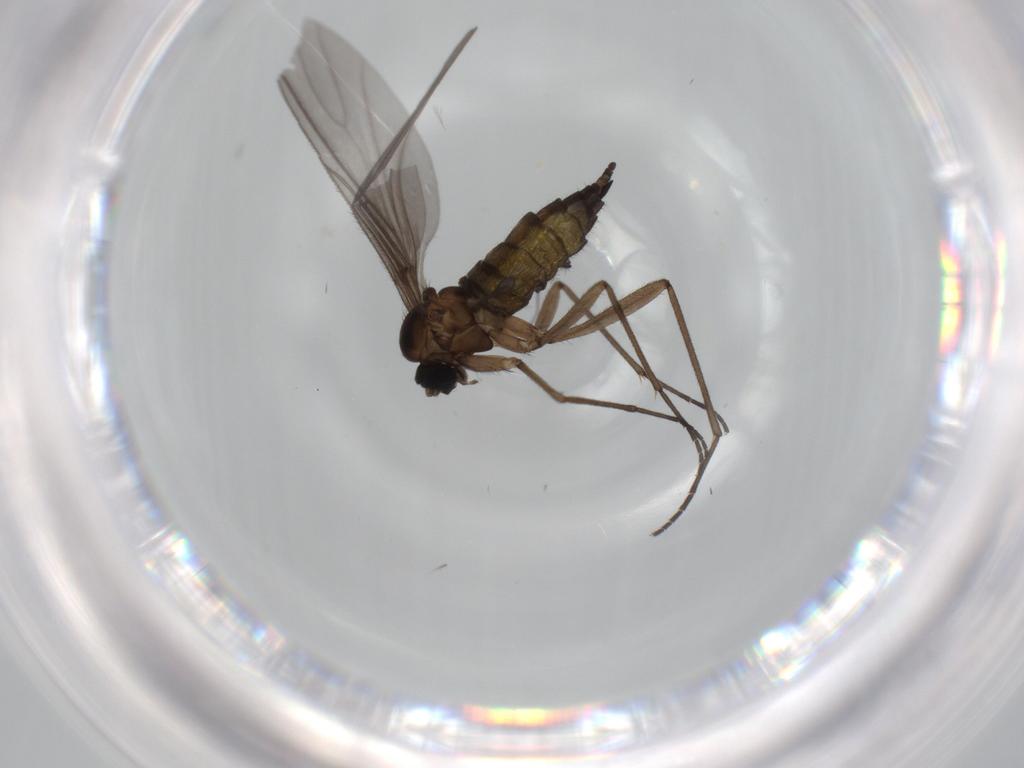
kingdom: Animalia
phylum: Arthropoda
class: Insecta
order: Diptera
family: Sciaridae
